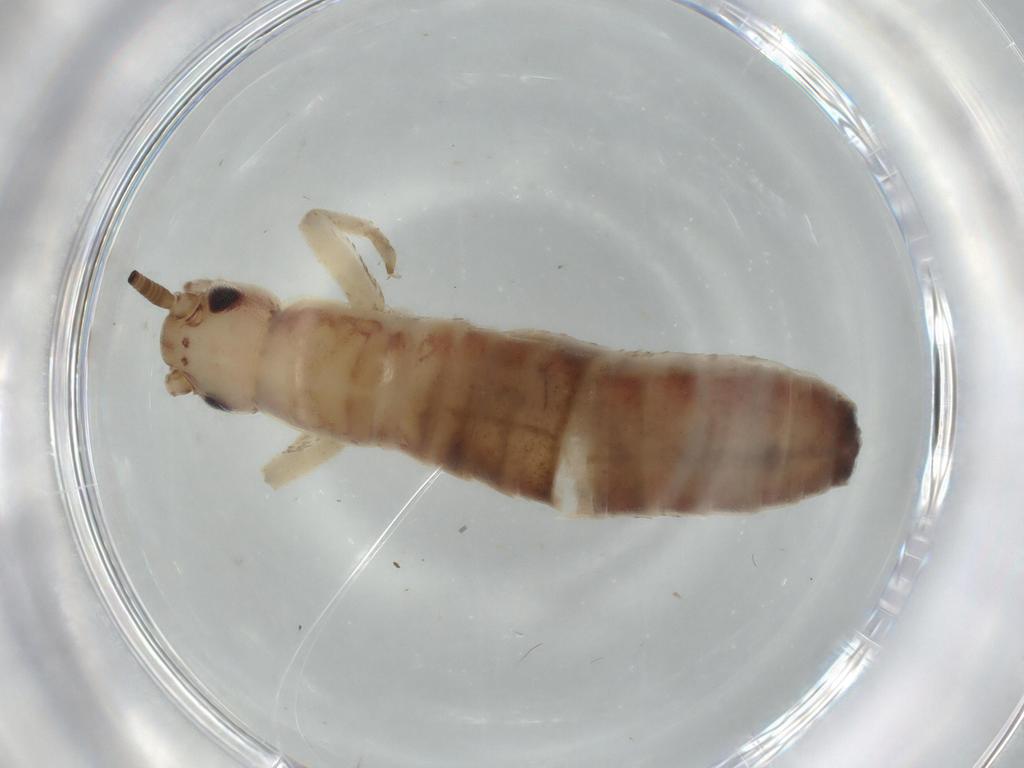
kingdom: Animalia
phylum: Arthropoda
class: Insecta
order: Orthoptera
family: Mogoplistidae
